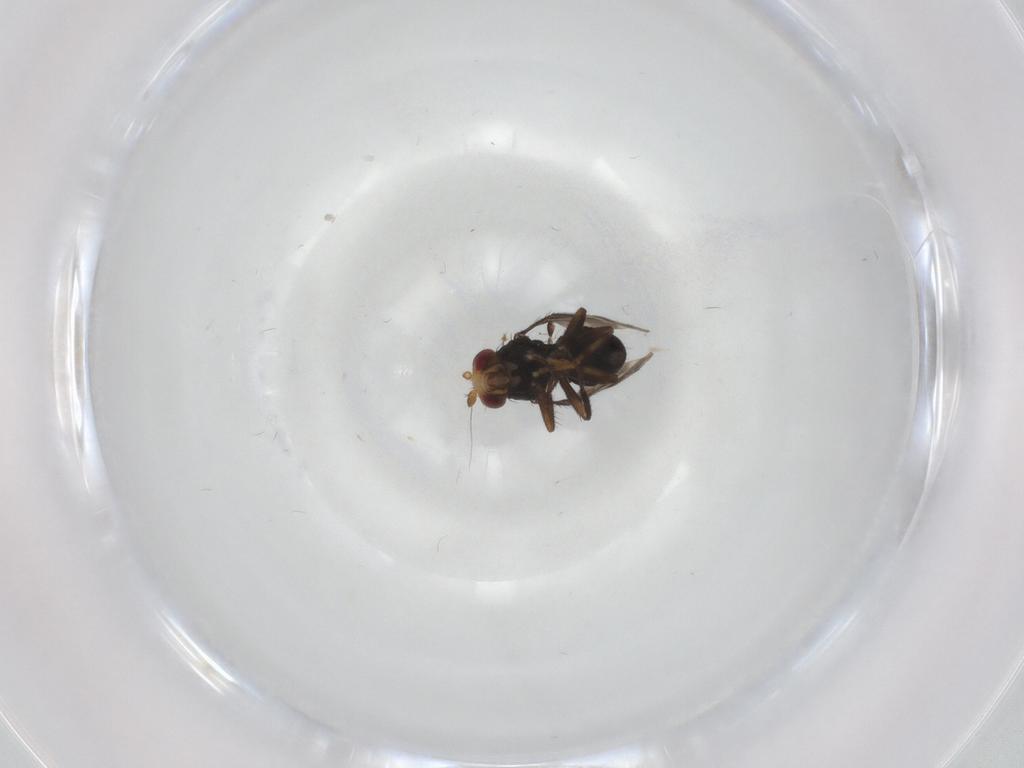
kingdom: Animalia
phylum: Arthropoda
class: Insecta
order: Diptera
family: Sphaeroceridae
